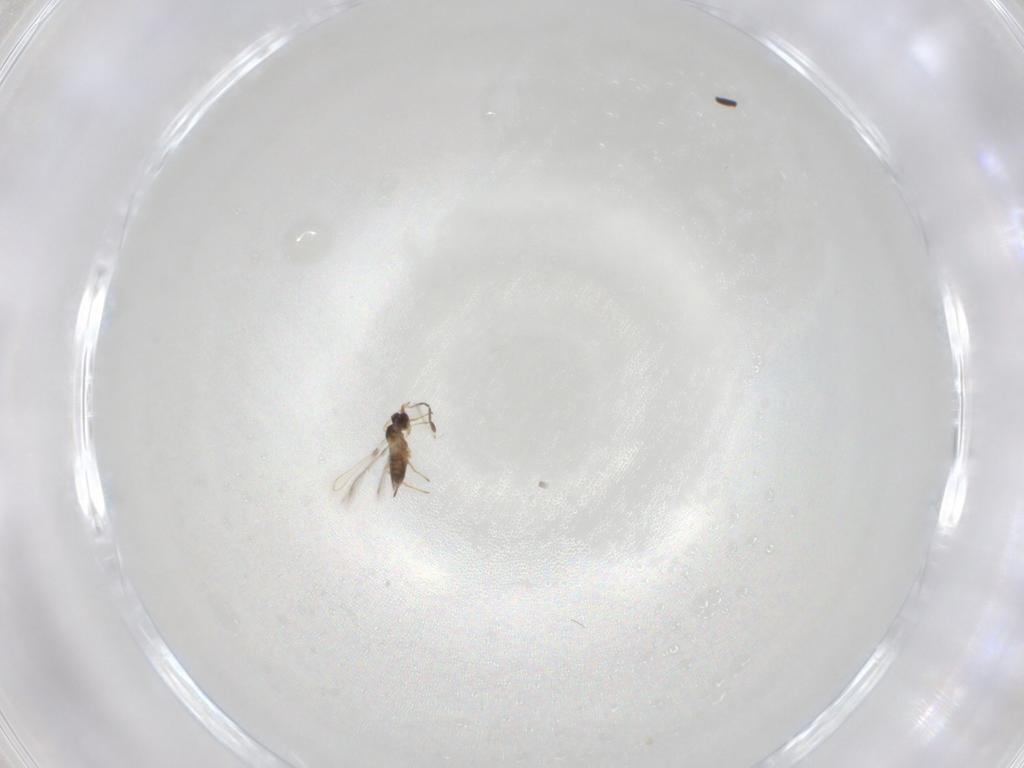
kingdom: Animalia
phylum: Arthropoda
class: Insecta
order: Hymenoptera
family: Mymaridae
